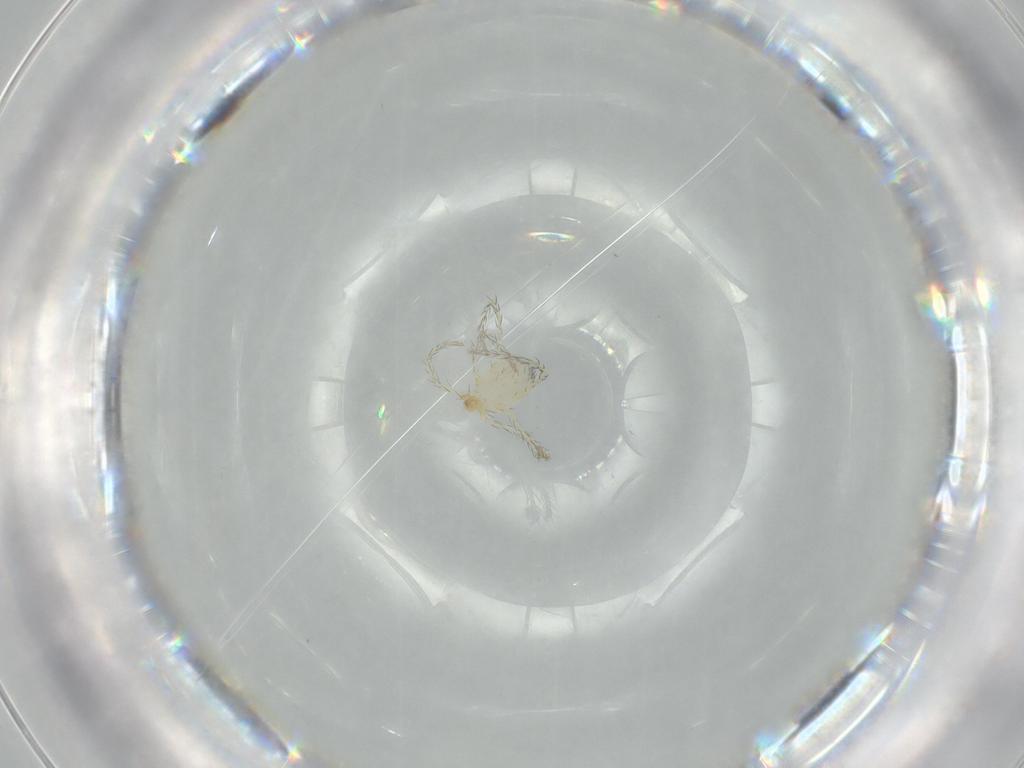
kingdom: Animalia
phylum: Arthropoda
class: Arachnida
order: Trombidiformes
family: Erythraeidae
